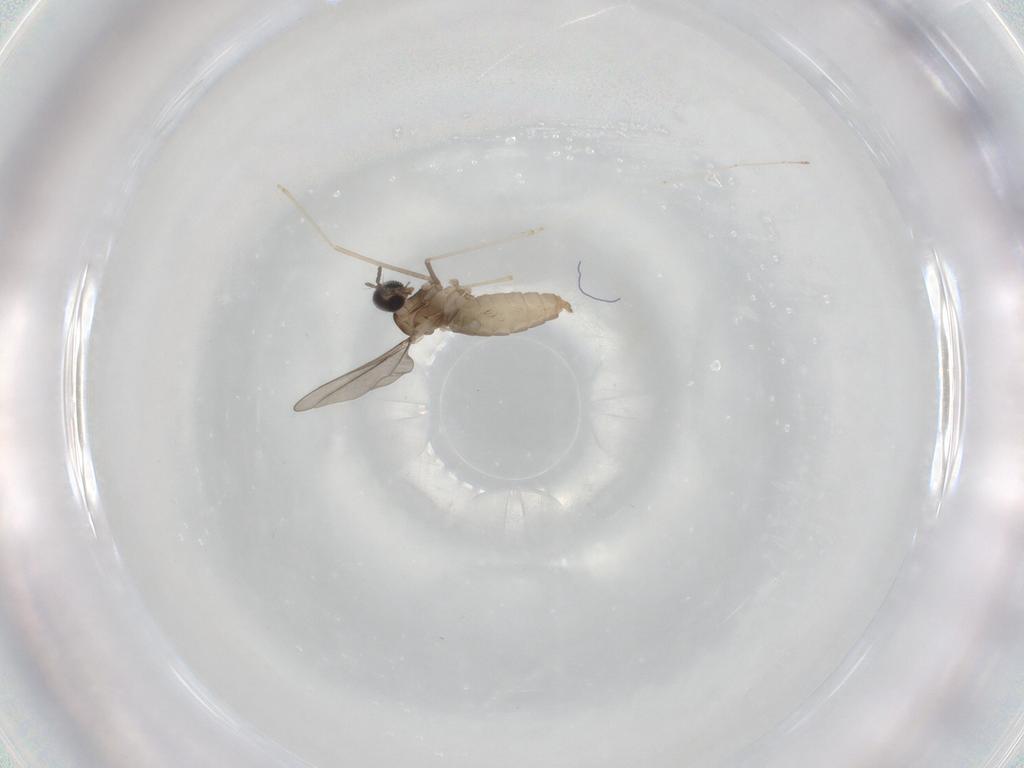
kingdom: Animalia
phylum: Arthropoda
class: Insecta
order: Diptera
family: Cecidomyiidae
